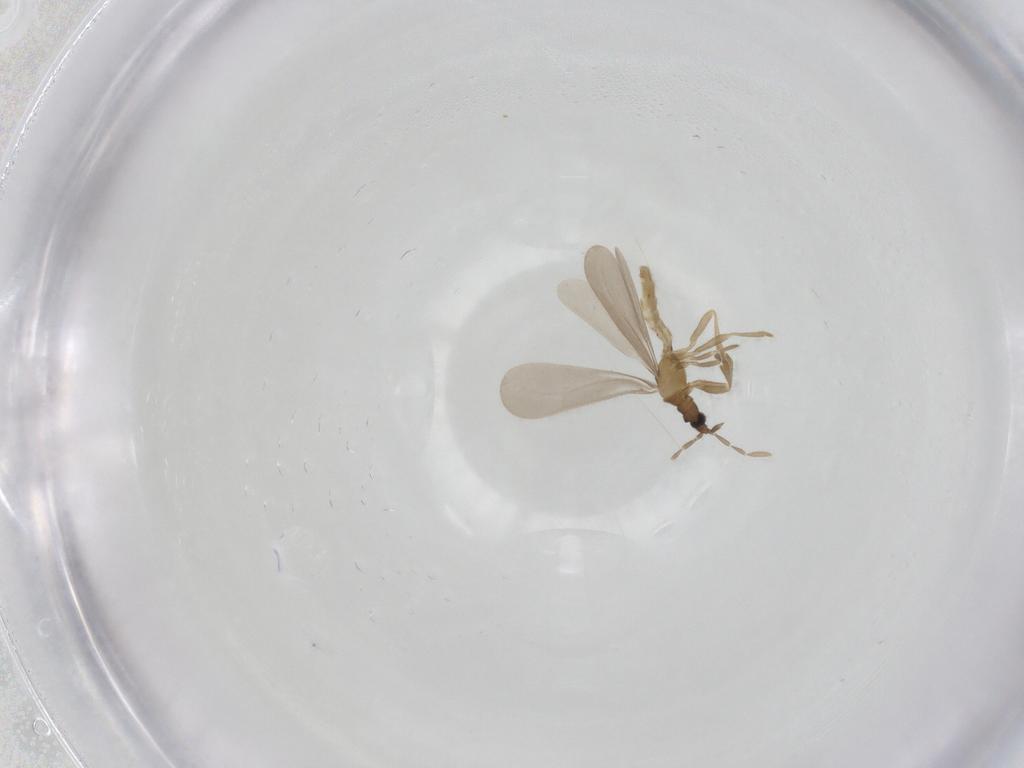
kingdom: Animalia
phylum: Arthropoda
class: Insecta
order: Hemiptera
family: Enicocephalidae
